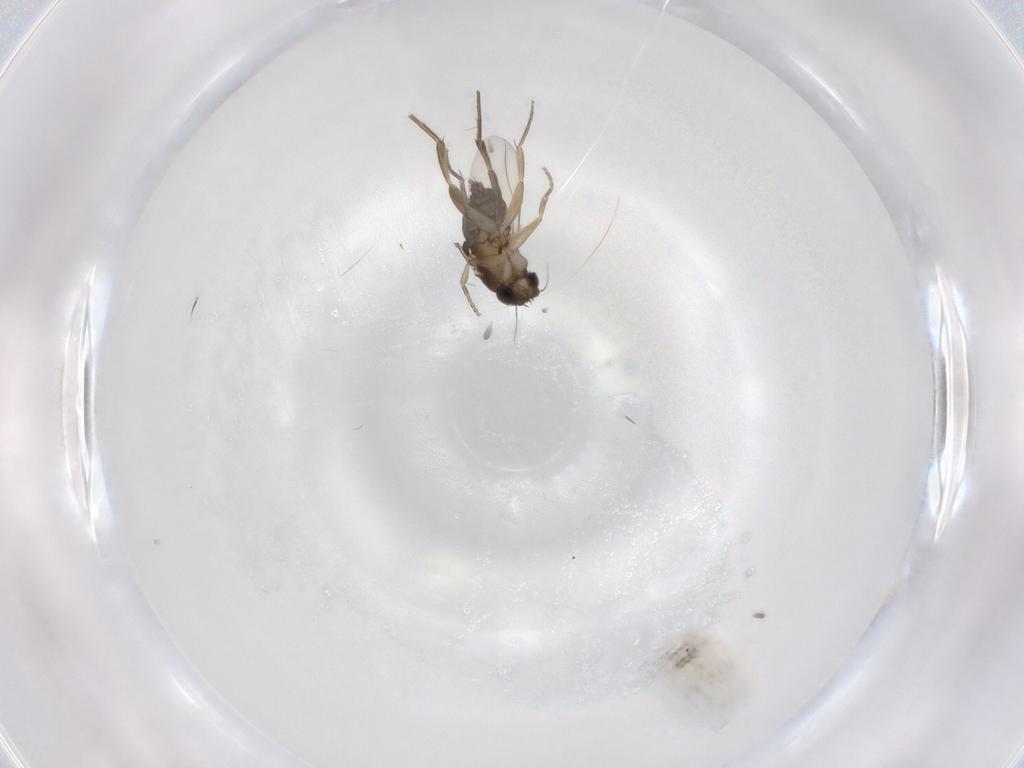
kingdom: Animalia
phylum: Arthropoda
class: Insecta
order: Diptera
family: Phoridae
